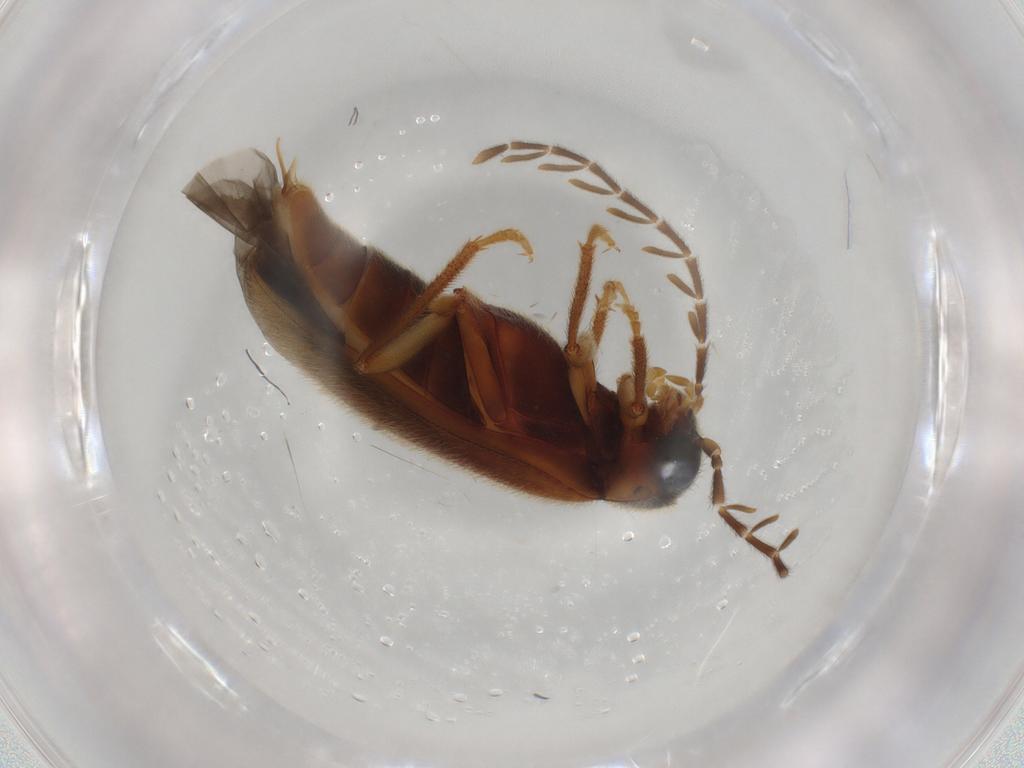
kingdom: Animalia
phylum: Arthropoda
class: Insecta
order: Coleoptera
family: Ptilodactylidae
